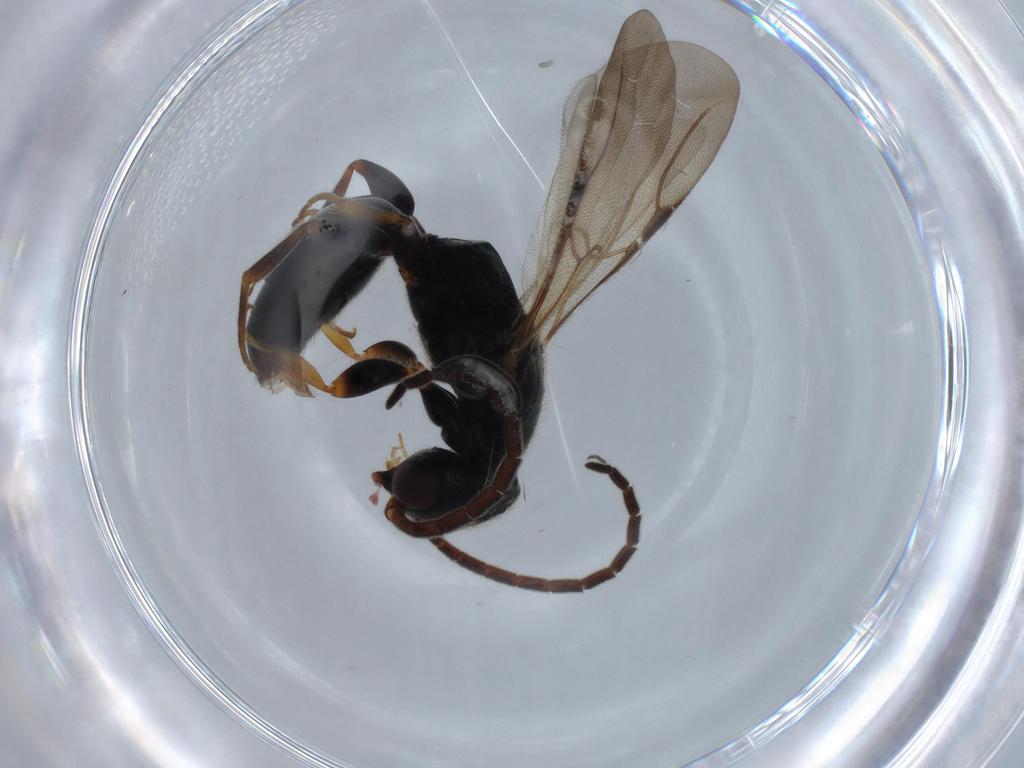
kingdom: Animalia
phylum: Arthropoda
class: Insecta
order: Hymenoptera
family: Bethylidae
